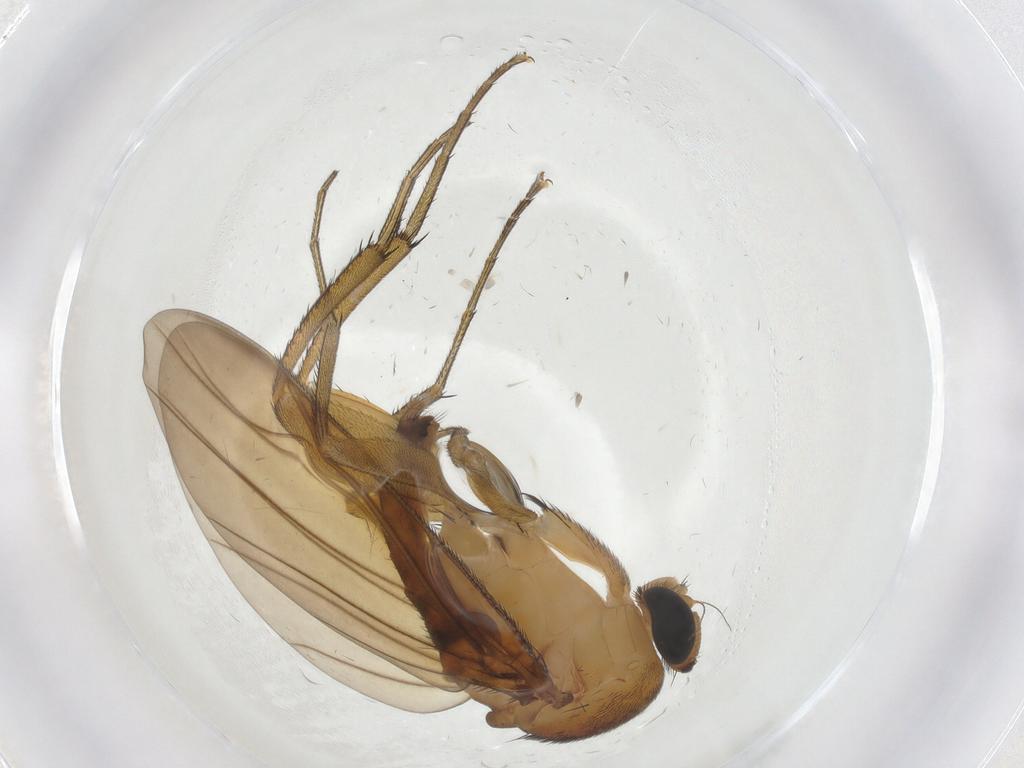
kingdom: Animalia
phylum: Arthropoda
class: Insecta
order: Diptera
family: Phoridae
